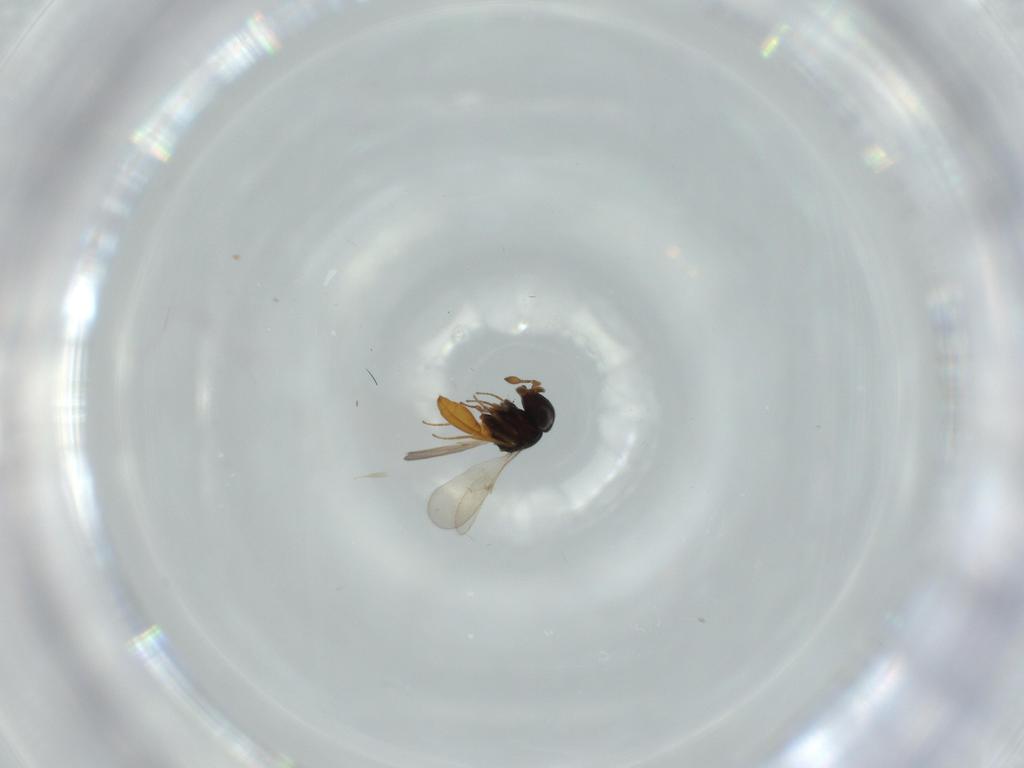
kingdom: Animalia
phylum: Arthropoda
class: Insecta
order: Hymenoptera
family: Scelionidae
